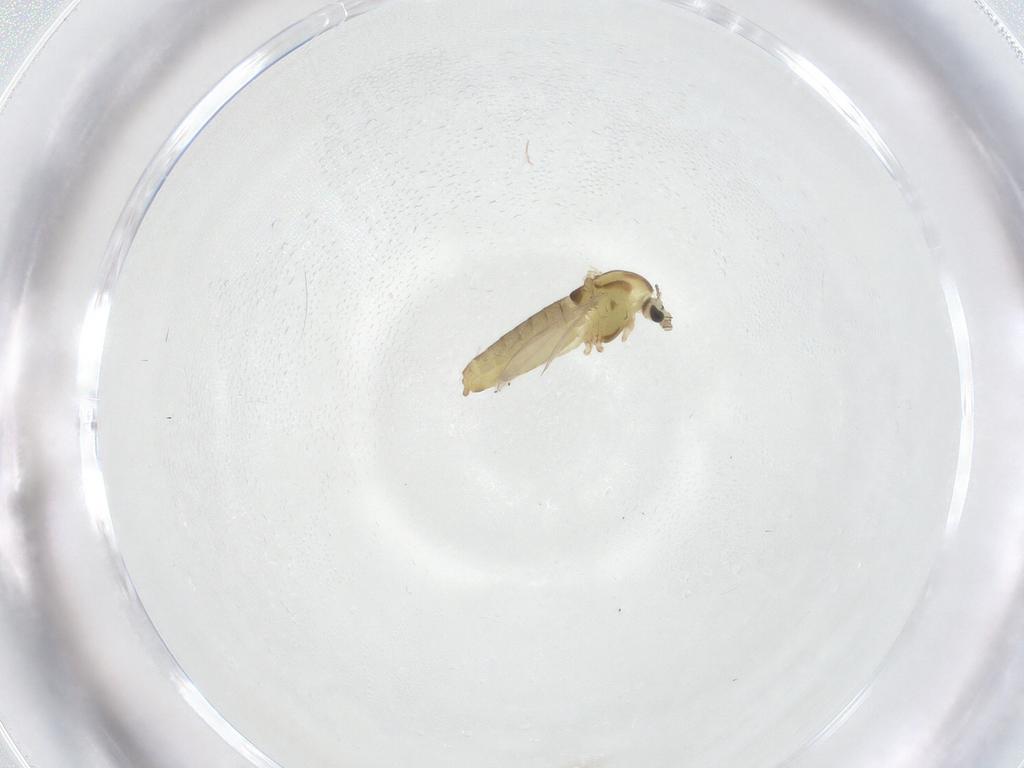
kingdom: Animalia
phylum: Arthropoda
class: Insecta
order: Diptera
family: Chironomidae
